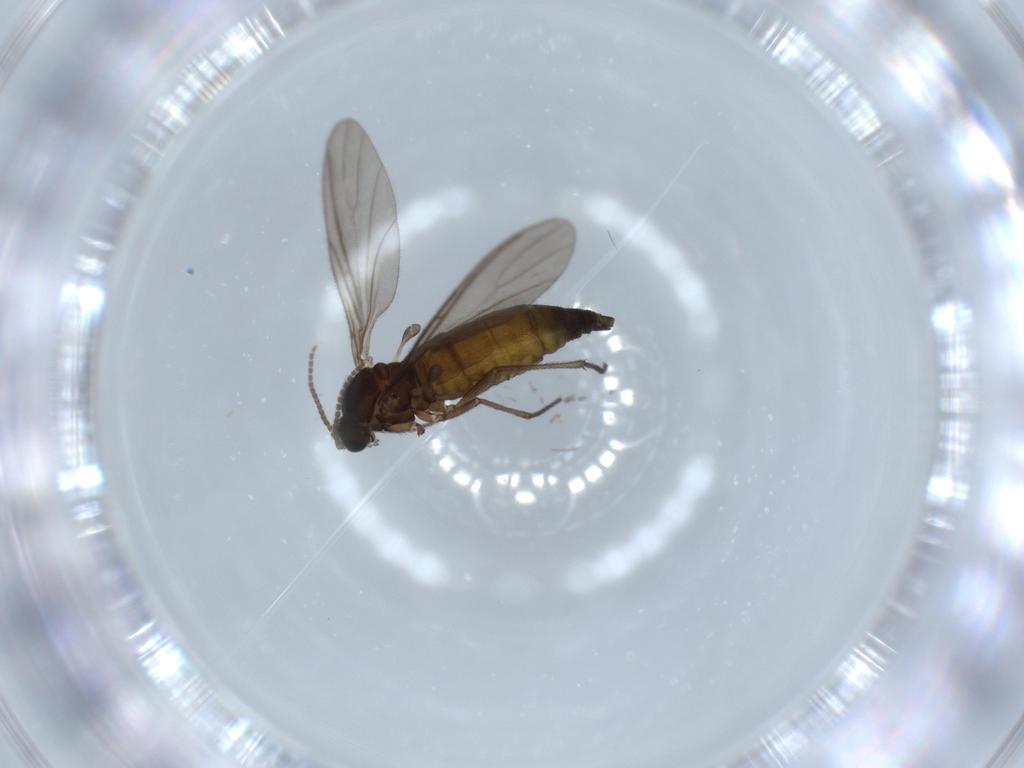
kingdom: Animalia
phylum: Arthropoda
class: Insecta
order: Diptera
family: Sciaridae
